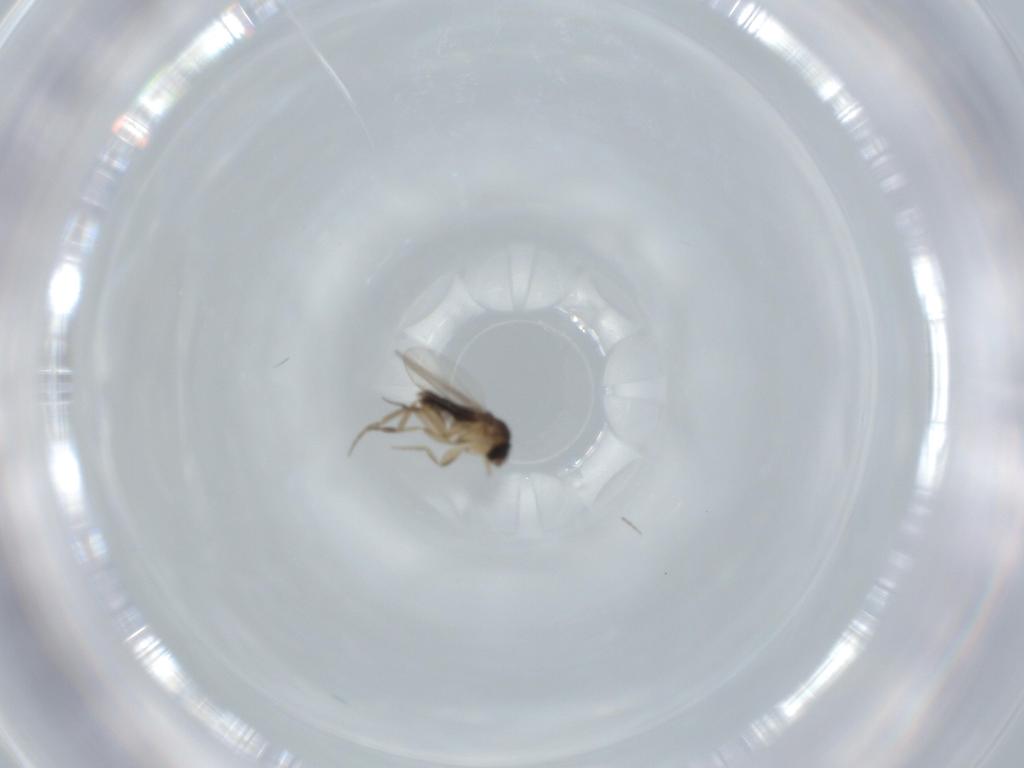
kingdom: Animalia
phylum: Arthropoda
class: Insecta
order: Diptera
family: Phoridae
